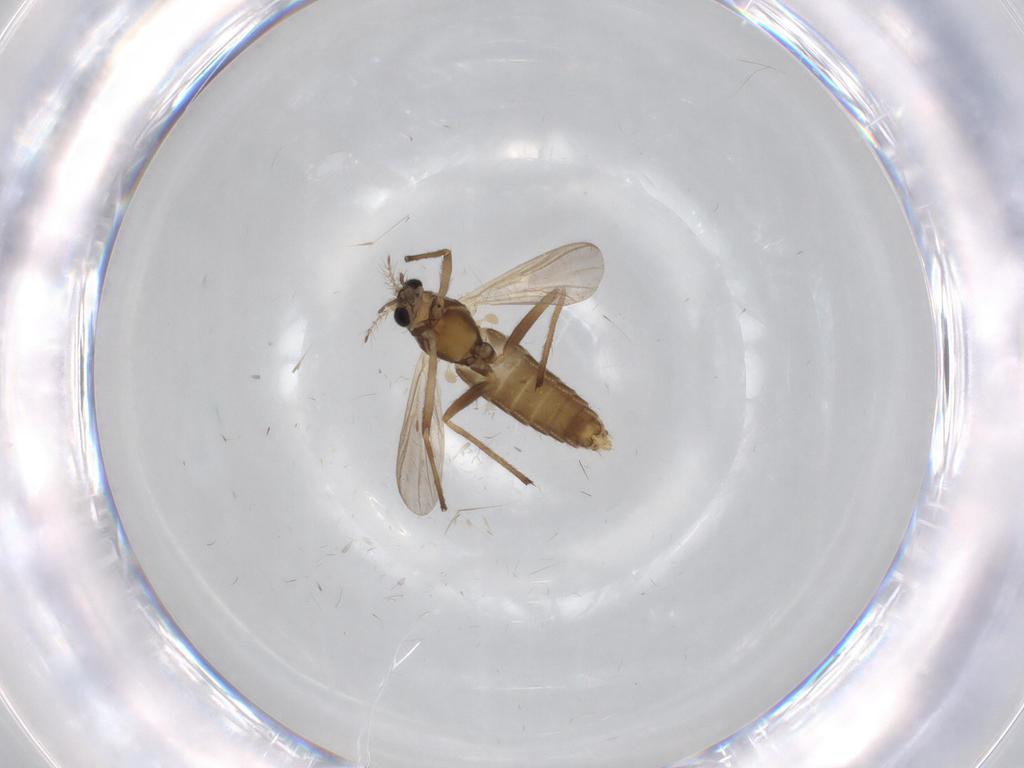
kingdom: Animalia
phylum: Arthropoda
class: Insecta
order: Diptera
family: Chironomidae
